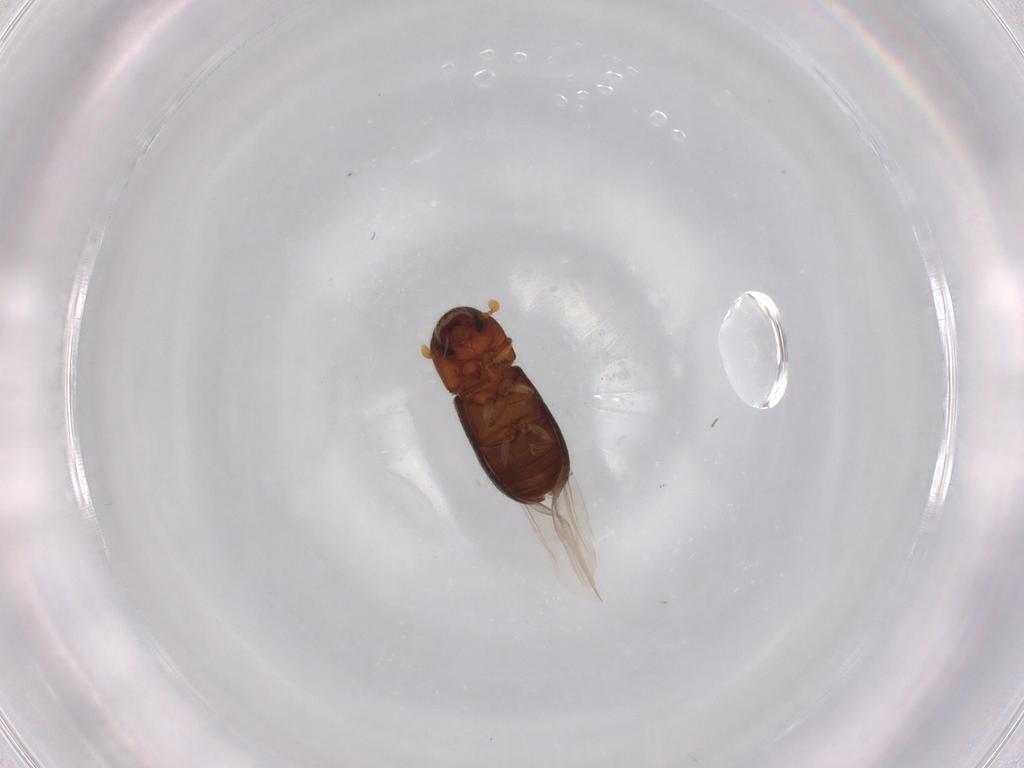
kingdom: Animalia
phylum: Arthropoda
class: Insecta
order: Coleoptera
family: Curculionidae
